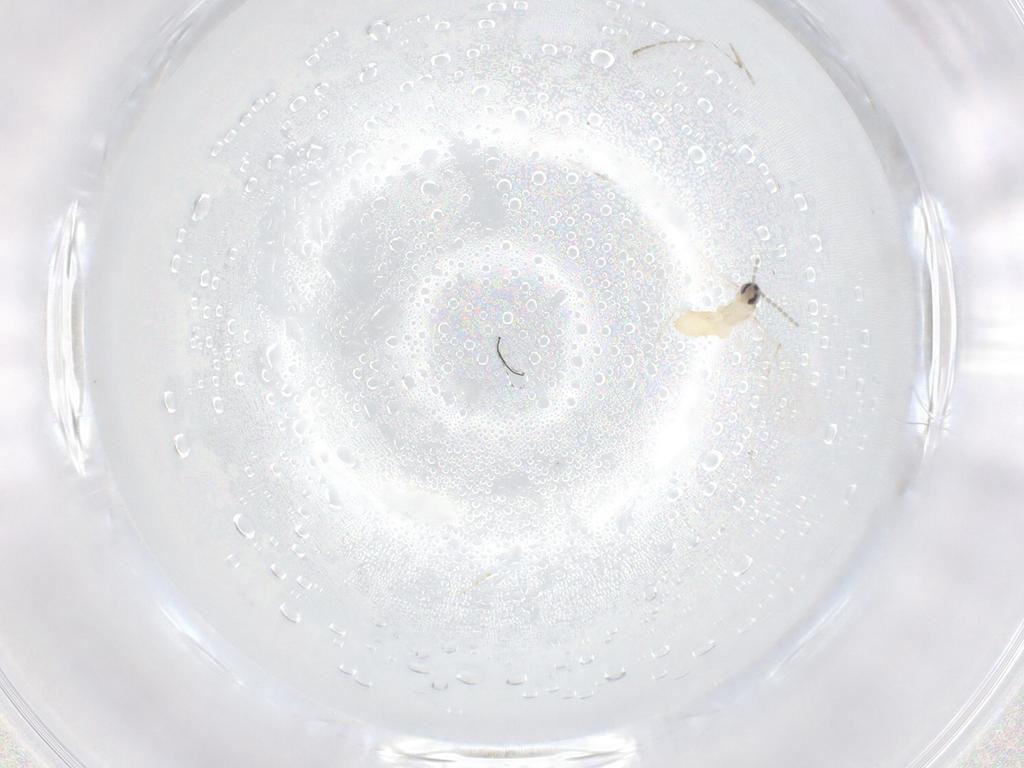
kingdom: Animalia
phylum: Arthropoda
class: Insecta
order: Diptera
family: Cecidomyiidae
